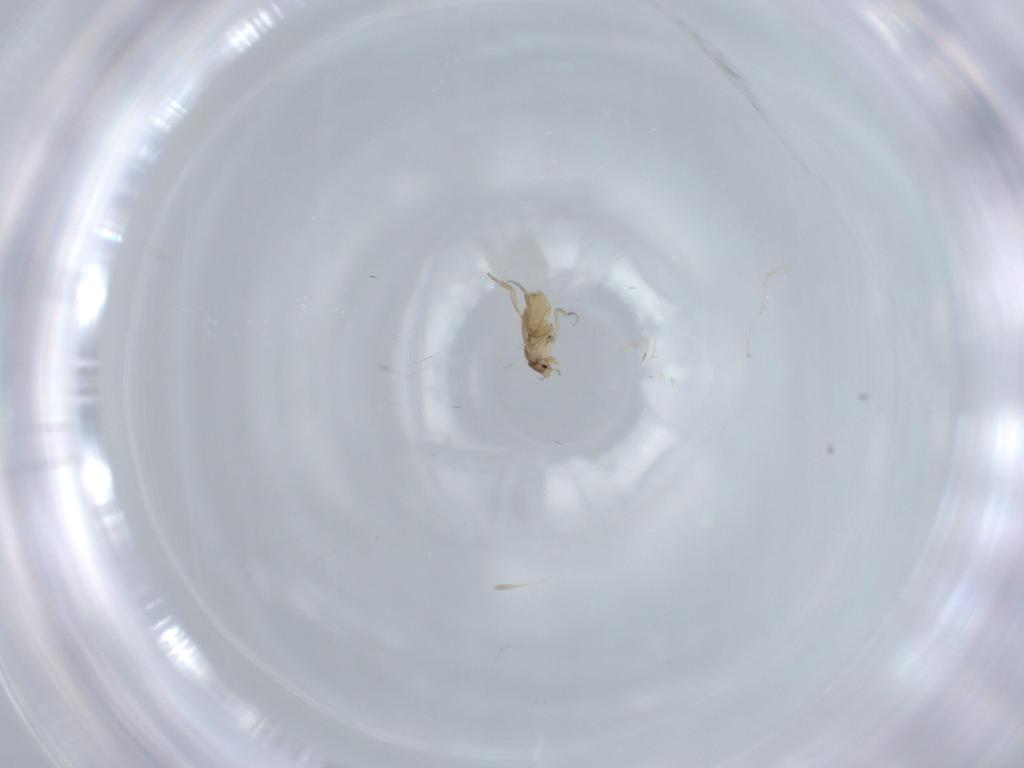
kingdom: Animalia
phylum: Arthropoda
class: Insecta
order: Diptera
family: Cecidomyiidae
